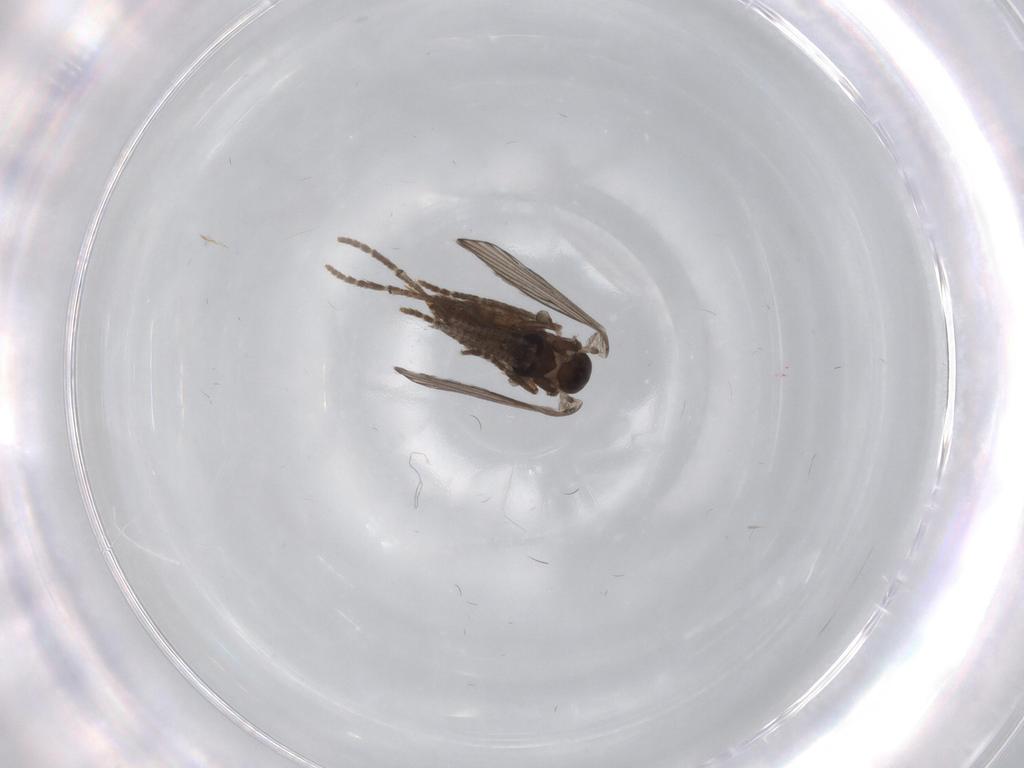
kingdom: Animalia
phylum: Arthropoda
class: Insecta
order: Diptera
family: Psychodidae
